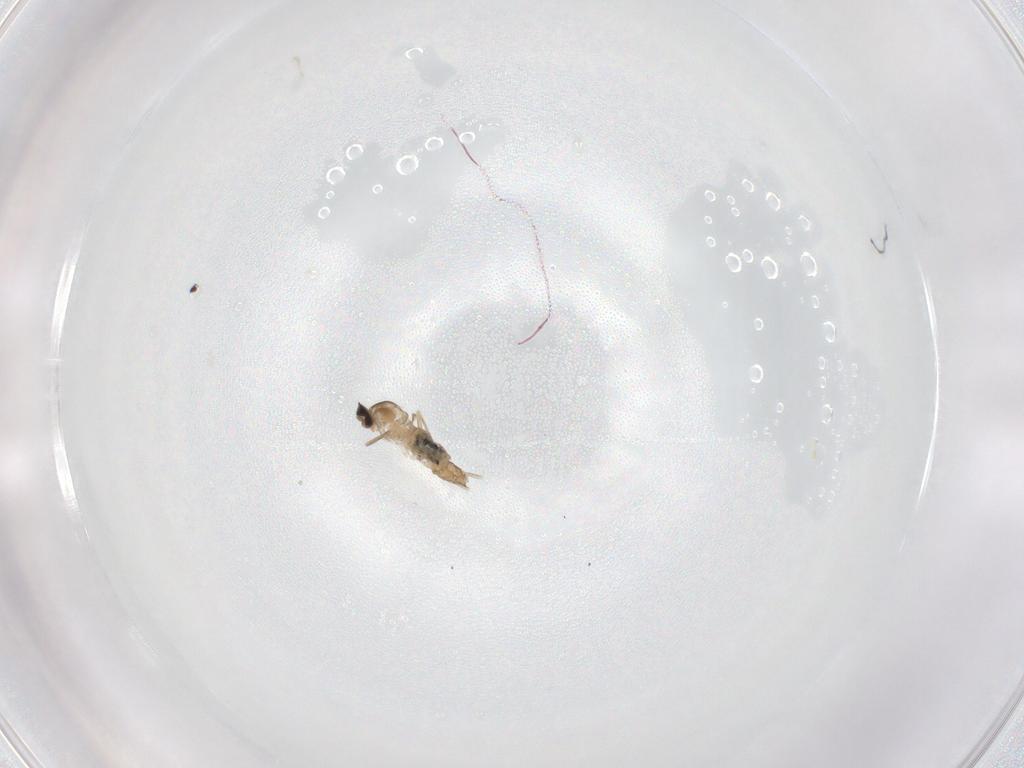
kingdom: Animalia
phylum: Arthropoda
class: Insecta
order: Diptera
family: Cecidomyiidae
